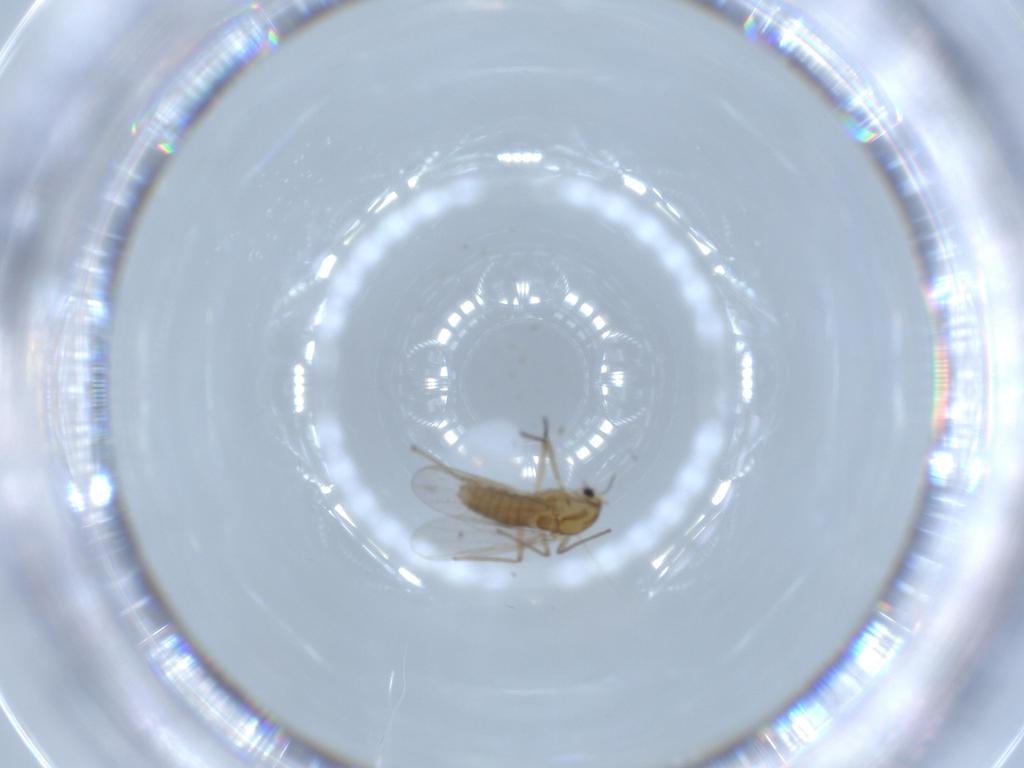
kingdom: Animalia
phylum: Arthropoda
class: Insecta
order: Diptera
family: Chironomidae
